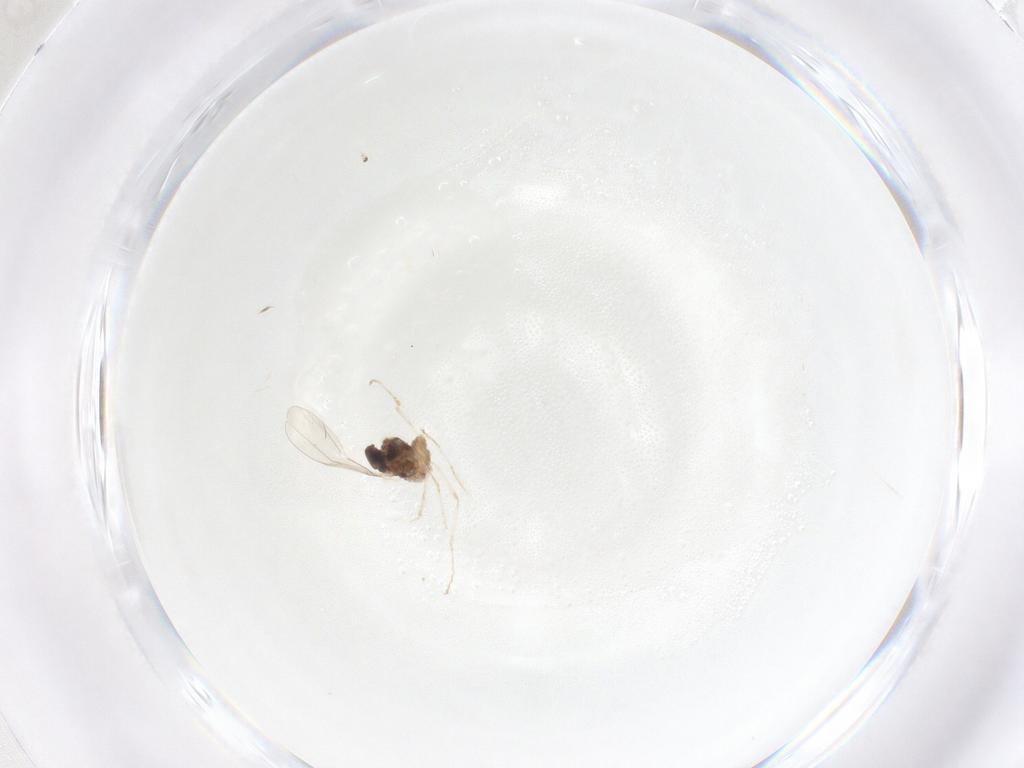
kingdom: Animalia
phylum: Arthropoda
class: Insecta
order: Diptera
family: Cecidomyiidae
